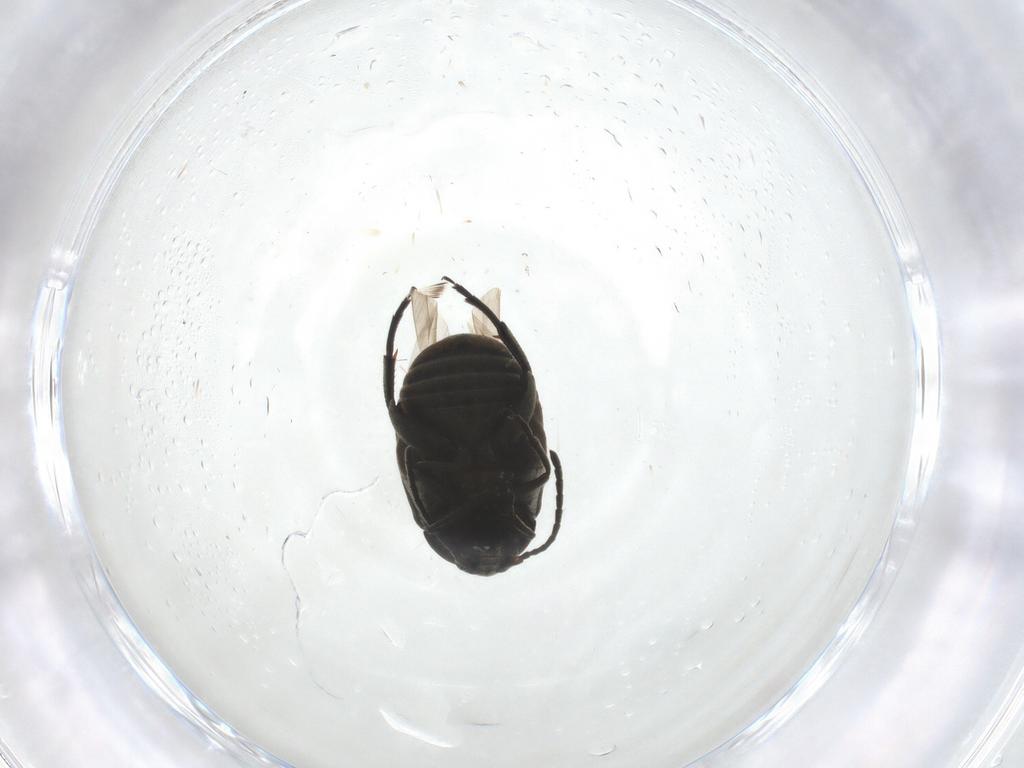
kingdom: Animalia
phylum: Arthropoda
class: Insecta
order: Coleoptera
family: Chrysomelidae
